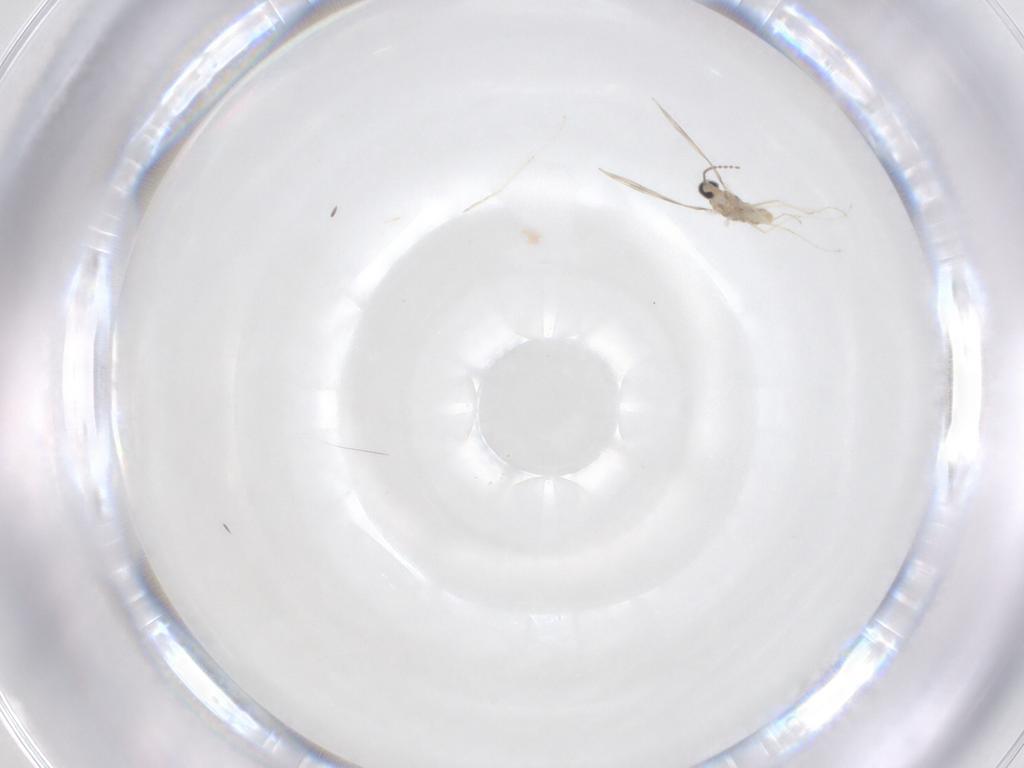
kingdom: Animalia
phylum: Arthropoda
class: Insecta
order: Diptera
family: Cecidomyiidae
